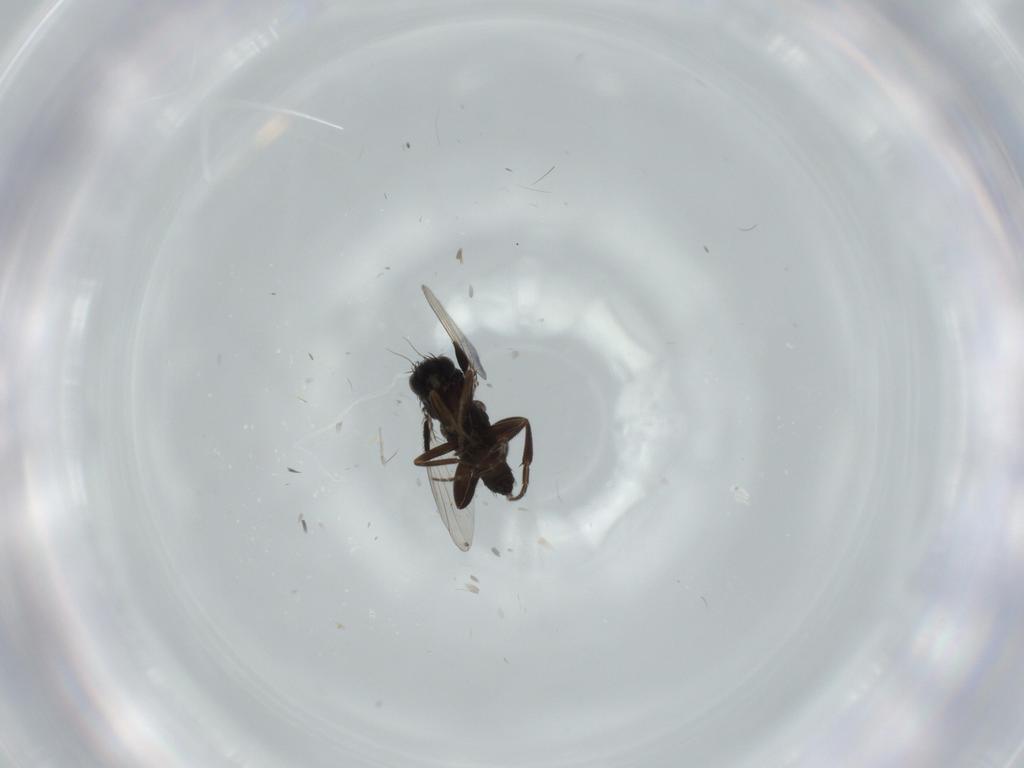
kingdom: Animalia
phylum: Arthropoda
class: Insecta
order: Diptera
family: Phoridae
